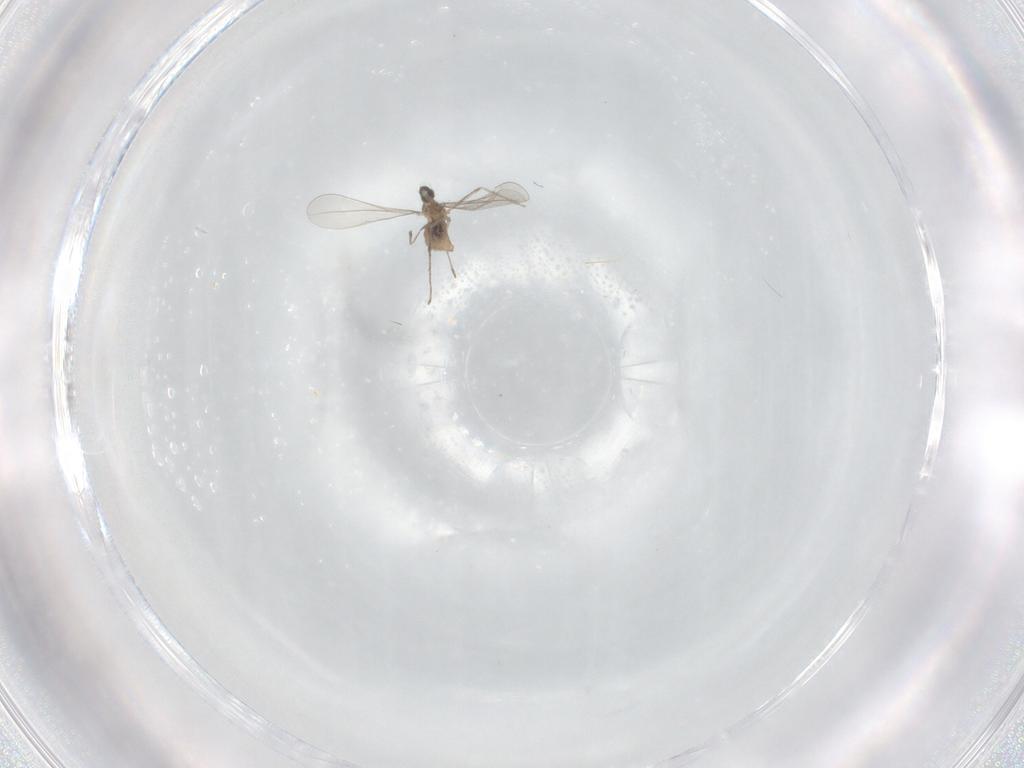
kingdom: Animalia
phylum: Arthropoda
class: Insecta
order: Diptera
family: Cecidomyiidae
